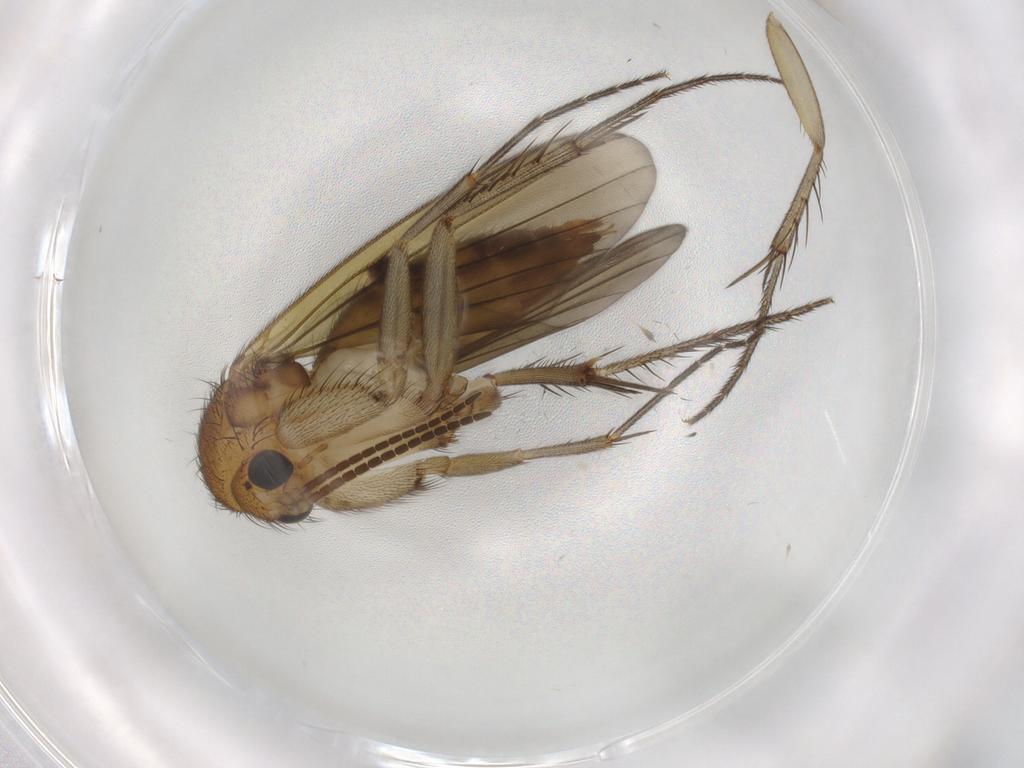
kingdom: Animalia
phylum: Arthropoda
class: Insecta
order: Diptera
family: Mycetophilidae
